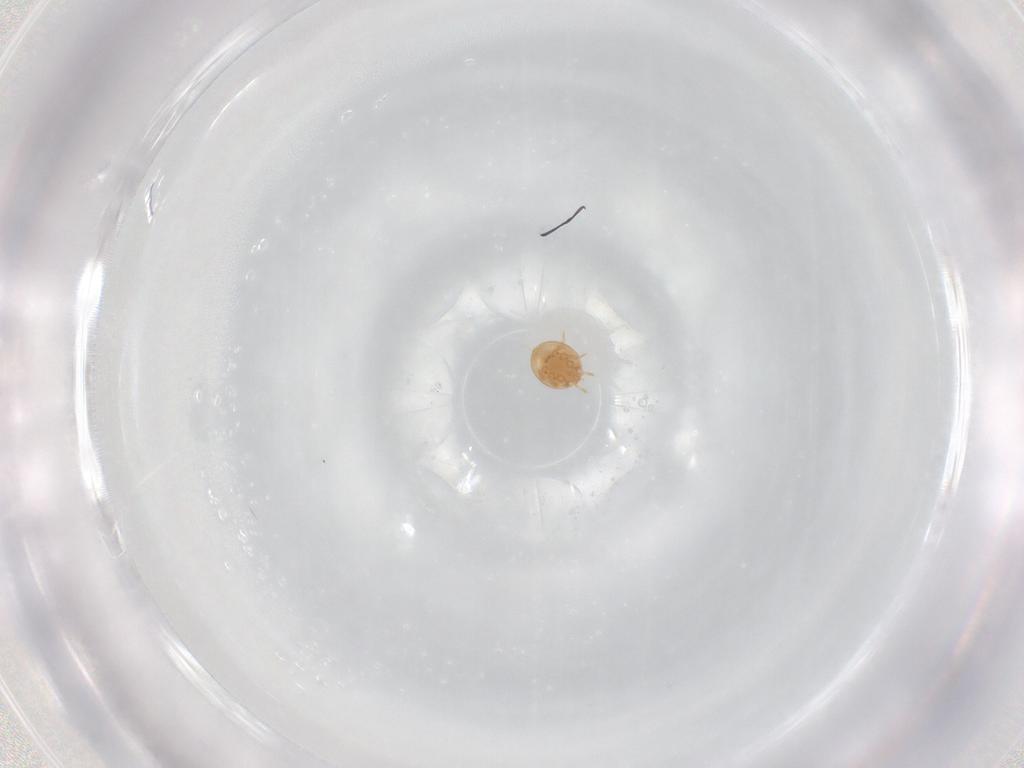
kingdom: Animalia
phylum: Arthropoda
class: Arachnida
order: Mesostigmata
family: Trematuridae
